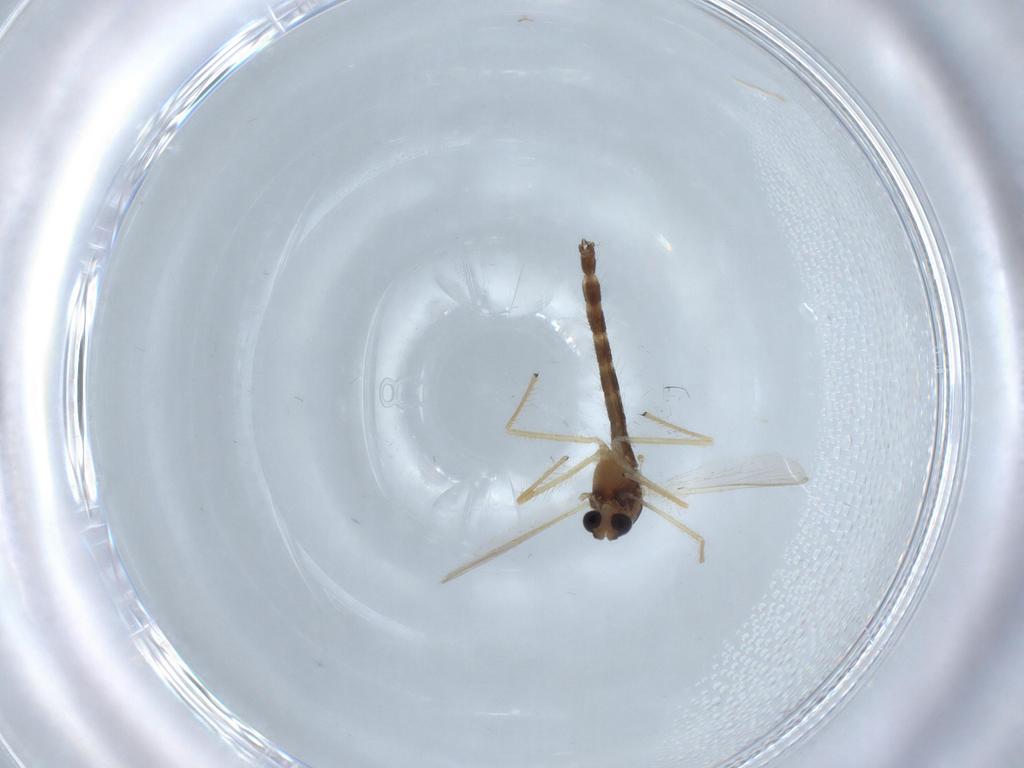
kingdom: Animalia
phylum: Arthropoda
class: Insecta
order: Diptera
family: Chironomidae
